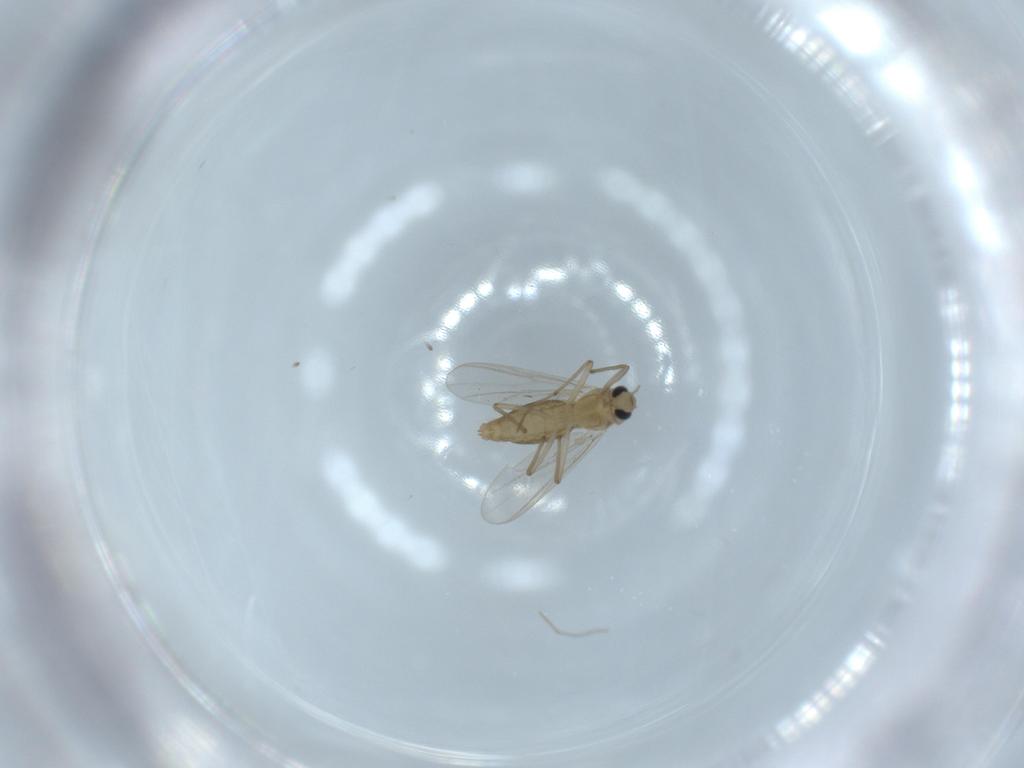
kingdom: Animalia
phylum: Arthropoda
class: Insecta
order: Diptera
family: Chironomidae
